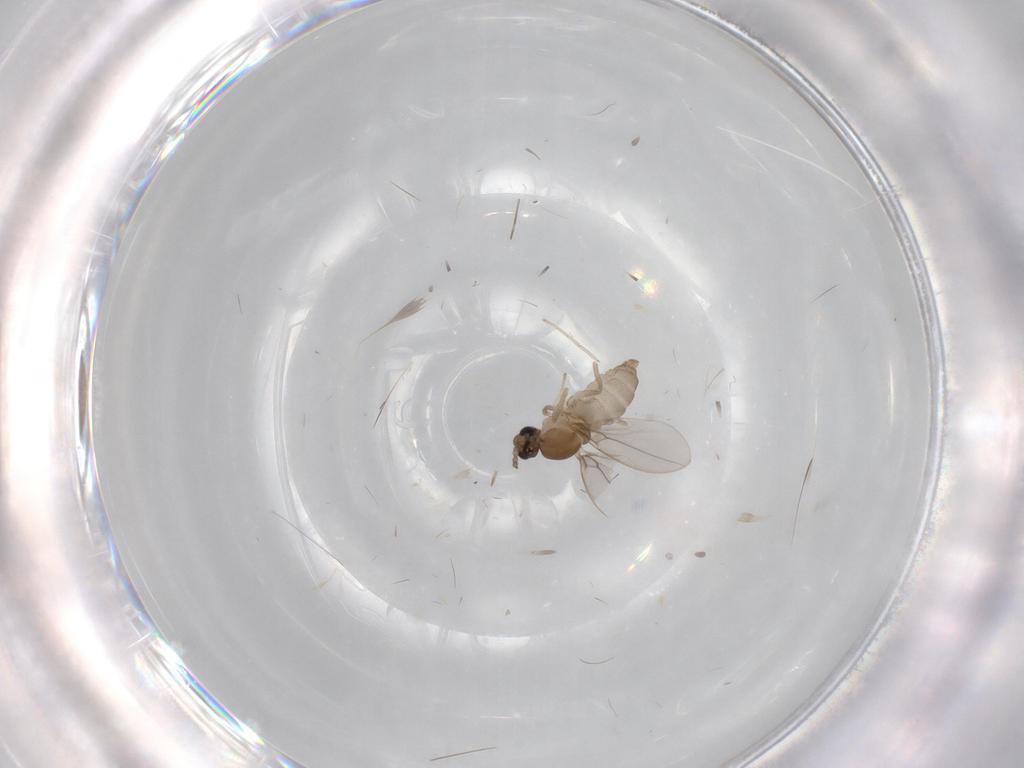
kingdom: Animalia
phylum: Arthropoda
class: Insecta
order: Diptera
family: Cecidomyiidae
